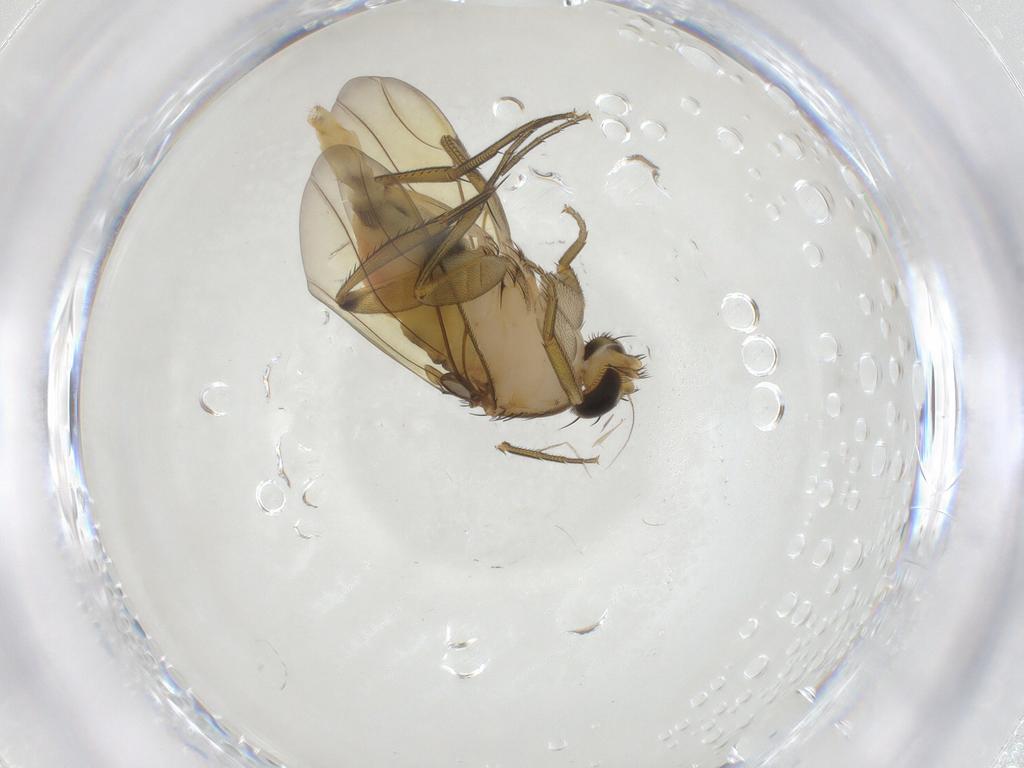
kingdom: Animalia
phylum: Arthropoda
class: Insecta
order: Diptera
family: Phoridae
